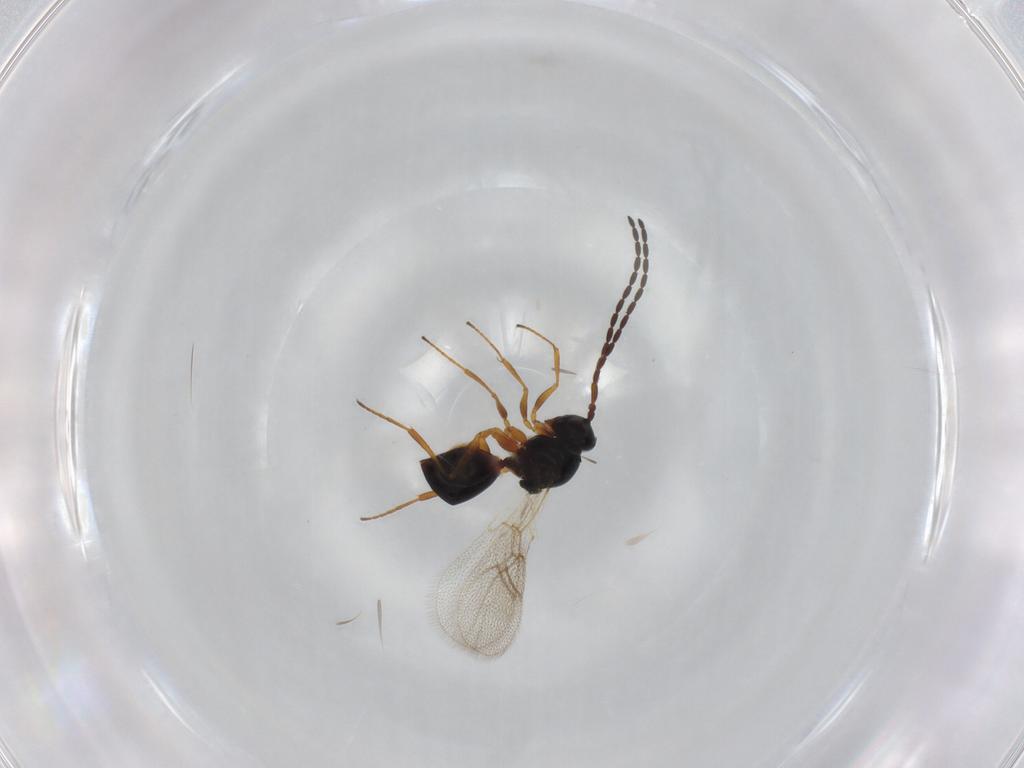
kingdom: Animalia
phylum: Arthropoda
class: Insecta
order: Hymenoptera
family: Figitidae
